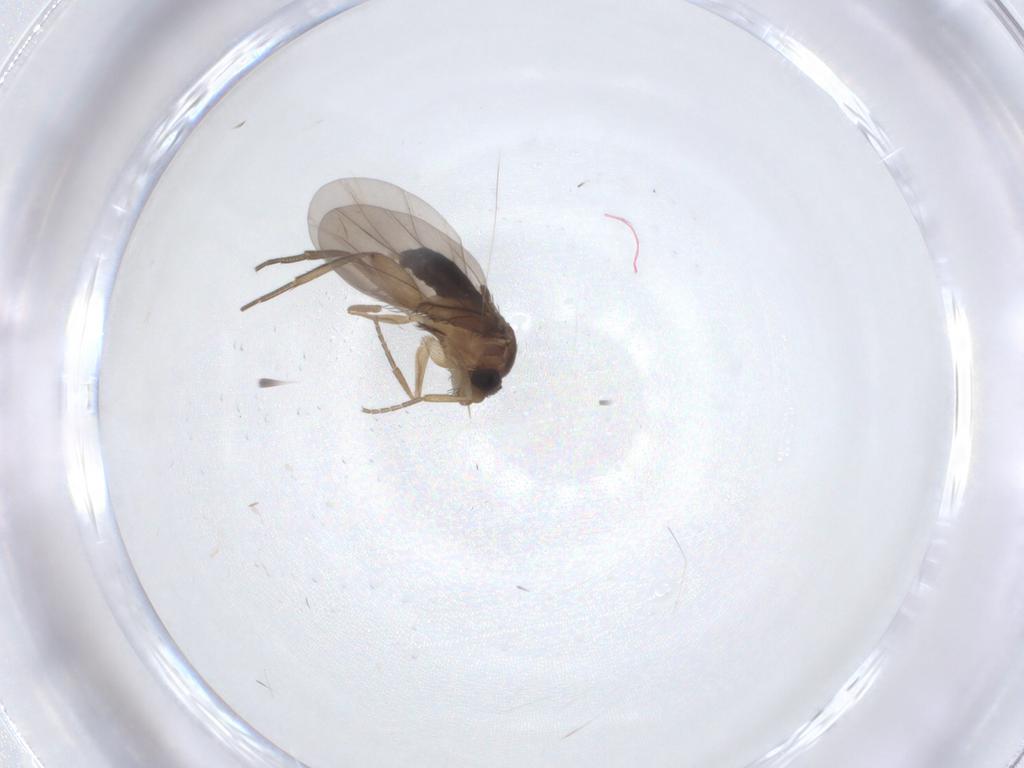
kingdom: Animalia
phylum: Arthropoda
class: Insecta
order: Diptera
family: Phoridae
